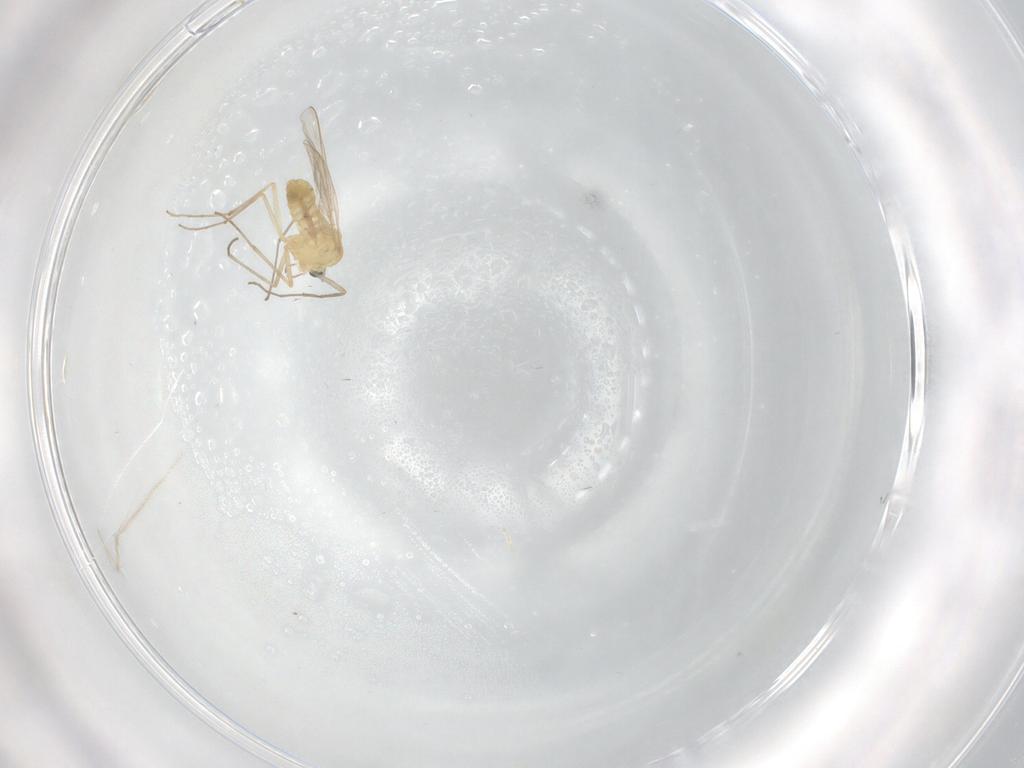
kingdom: Animalia
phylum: Arthropoda
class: Insecta
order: Diptera
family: Chironomidae
